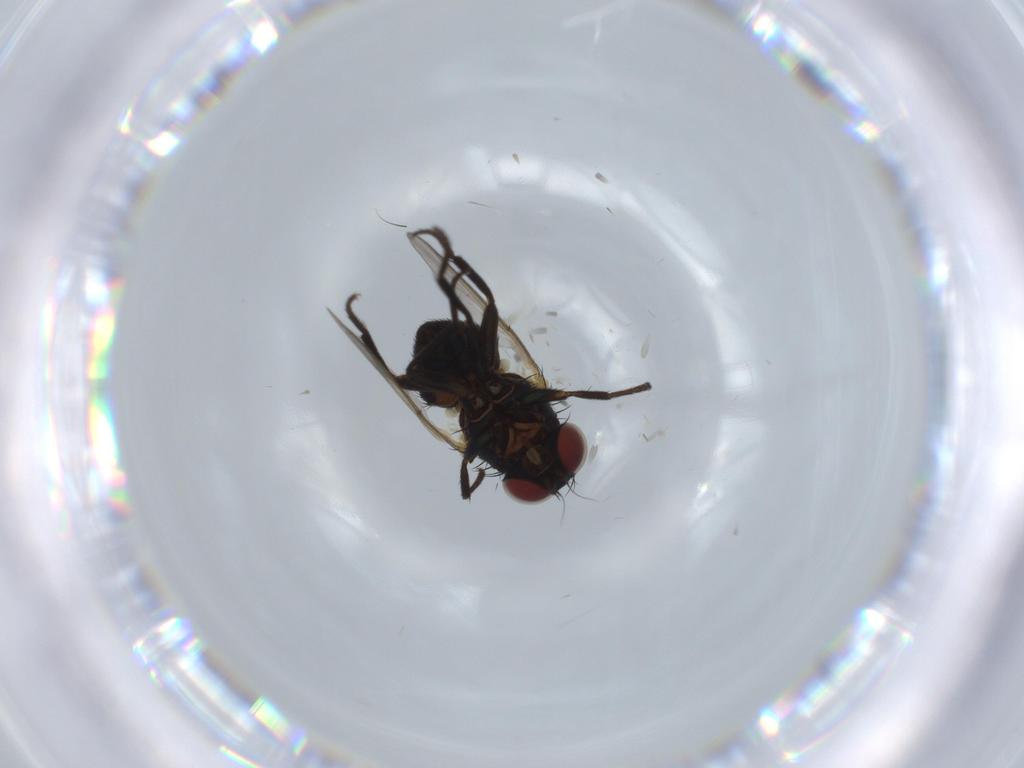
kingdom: Animalia
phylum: Arthropoda
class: Insecta
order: Diptera
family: Agromyzidae
